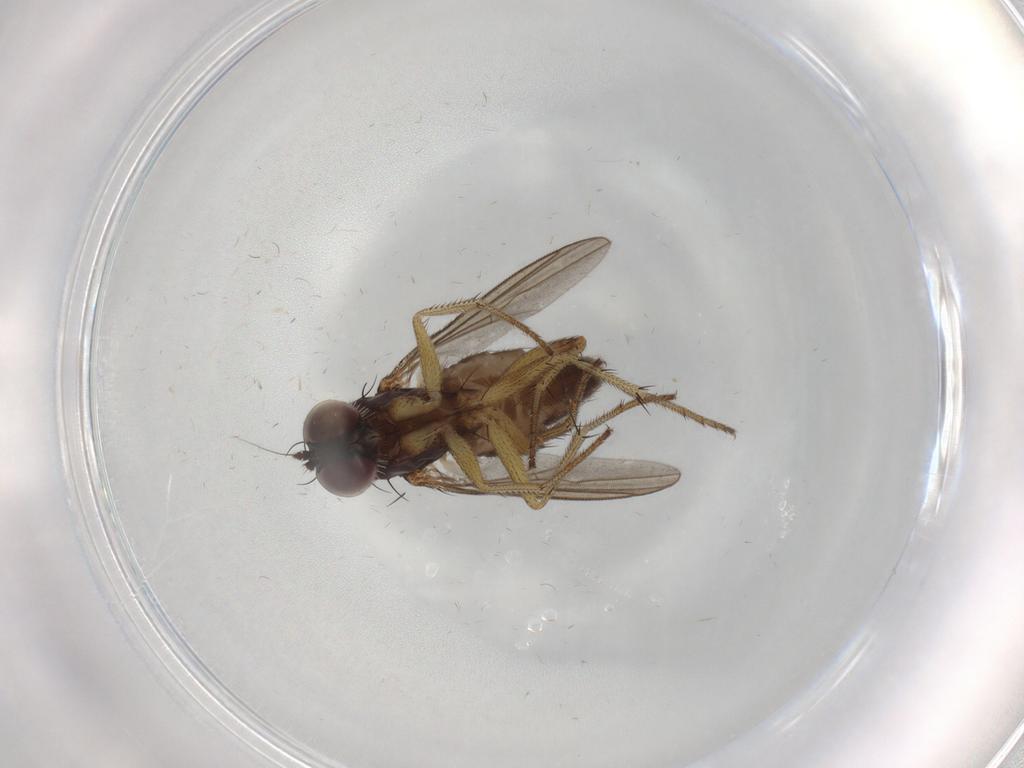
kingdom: Animalia
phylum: Arthropoda
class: Insecta
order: Diptera
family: Dolichopodidae
